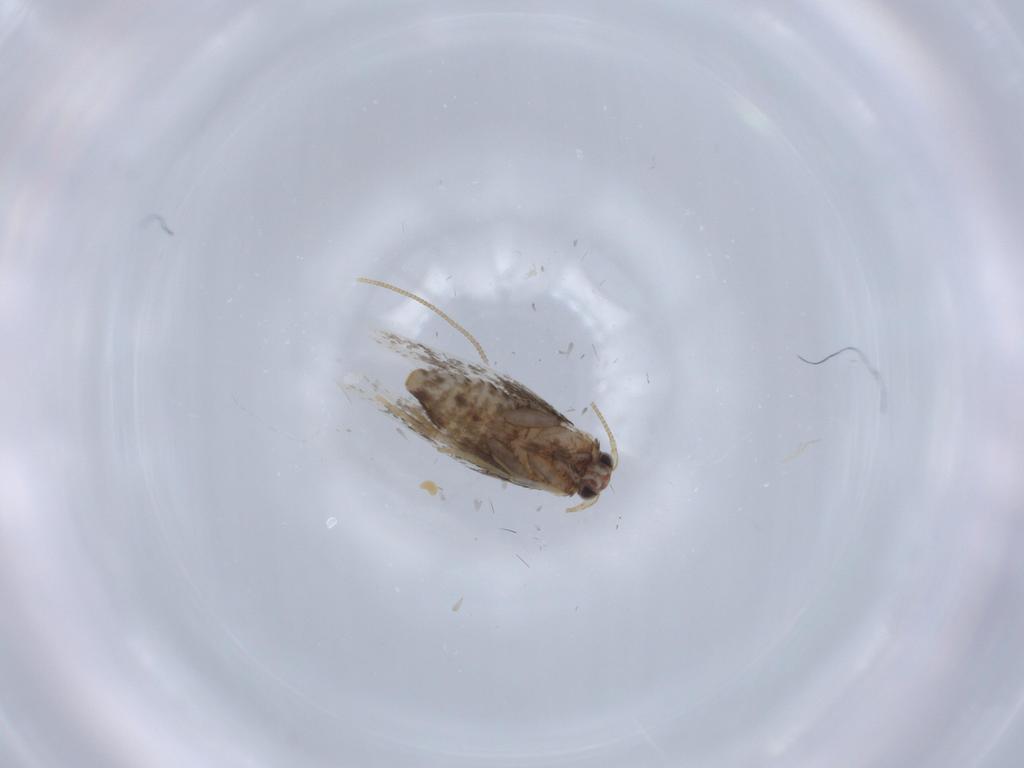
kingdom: Animalia
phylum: Arthropoda
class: Insecta
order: Lepidoptera
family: Nepticulidae
